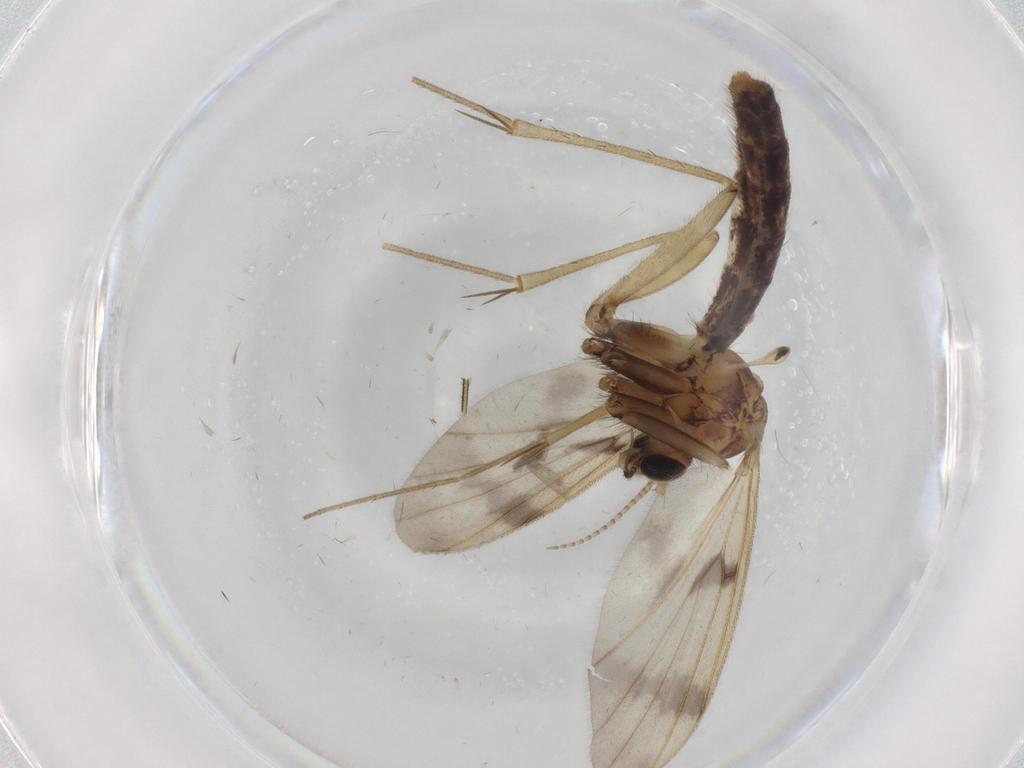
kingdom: Animalia
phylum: Arthropoda
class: Insecta
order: Diptera
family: Mycetophilidae
